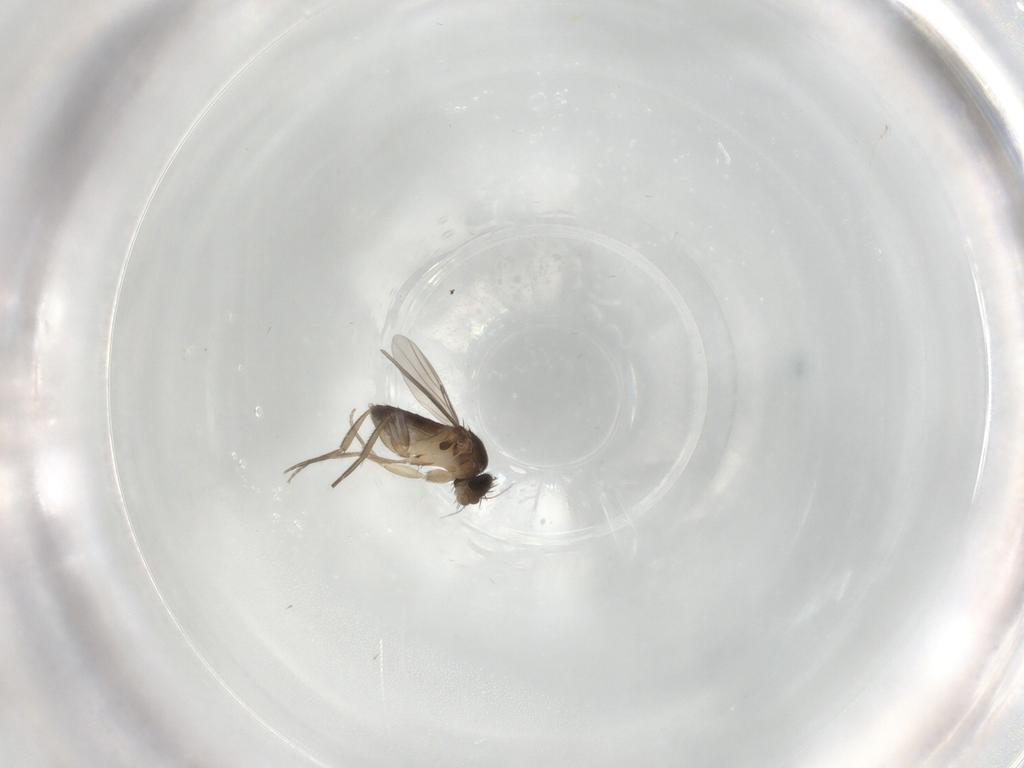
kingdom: Animalia
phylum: Arthropoda
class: Insecta
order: Diptera
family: Phoridae
